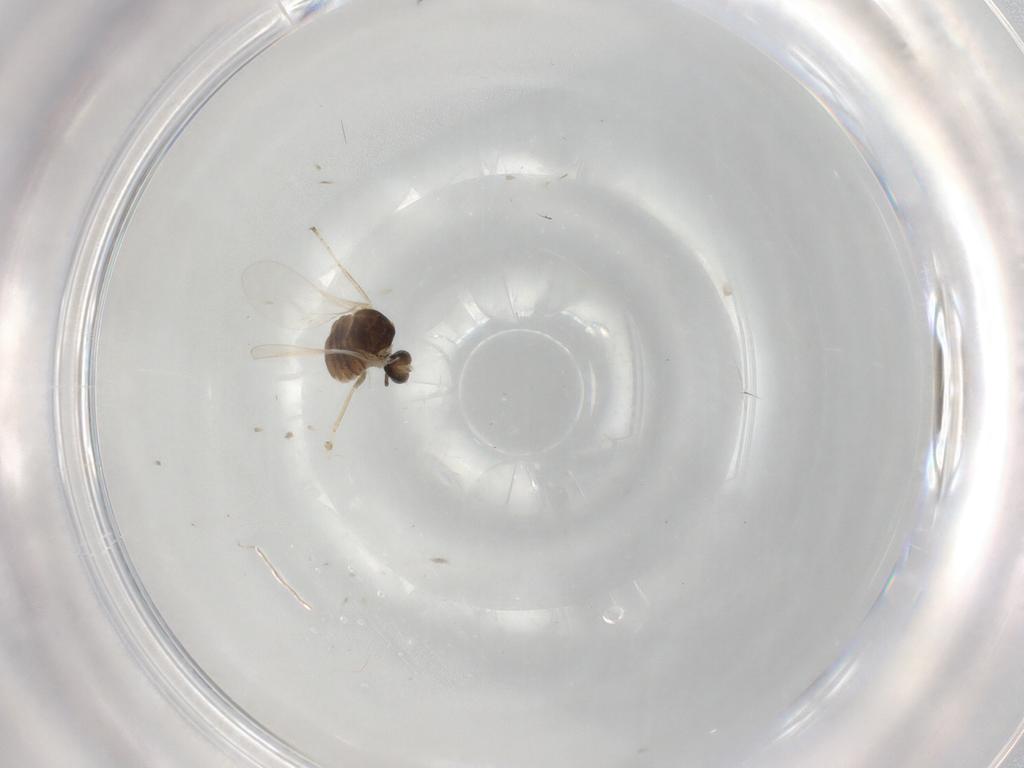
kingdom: Animalia
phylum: Arthropoda
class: Insecta
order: Diptera
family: Cecidomyiidae
